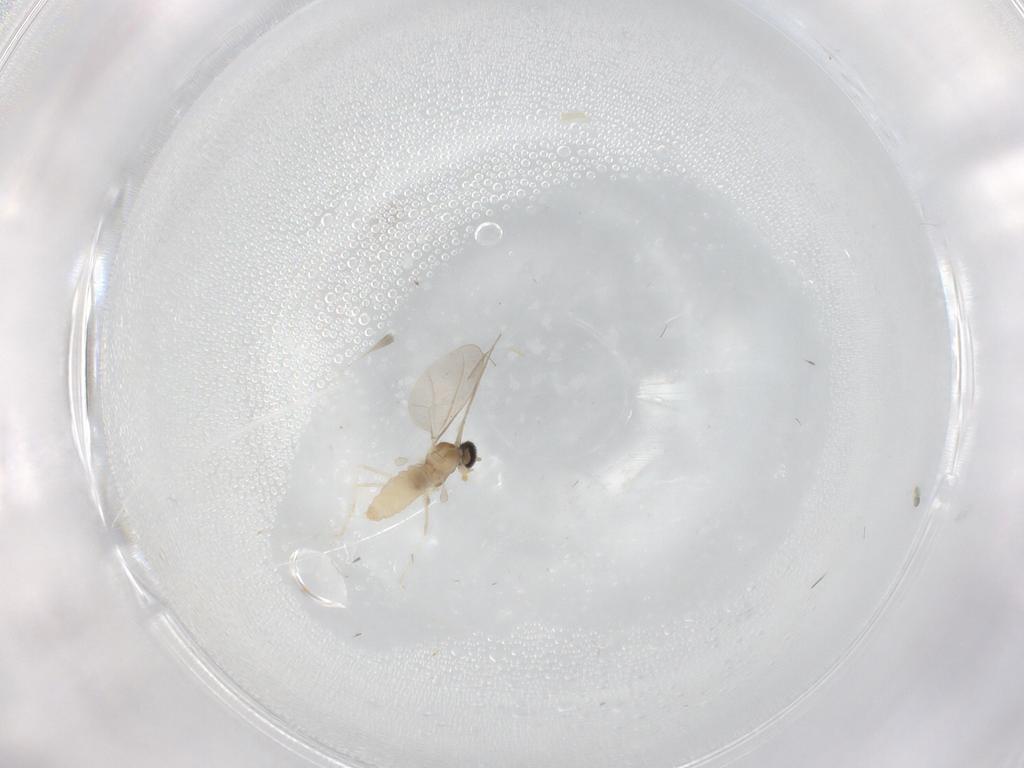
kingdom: Animalia
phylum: Arthropoda
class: Insecta
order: Diptera
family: Cecidomyiidae
